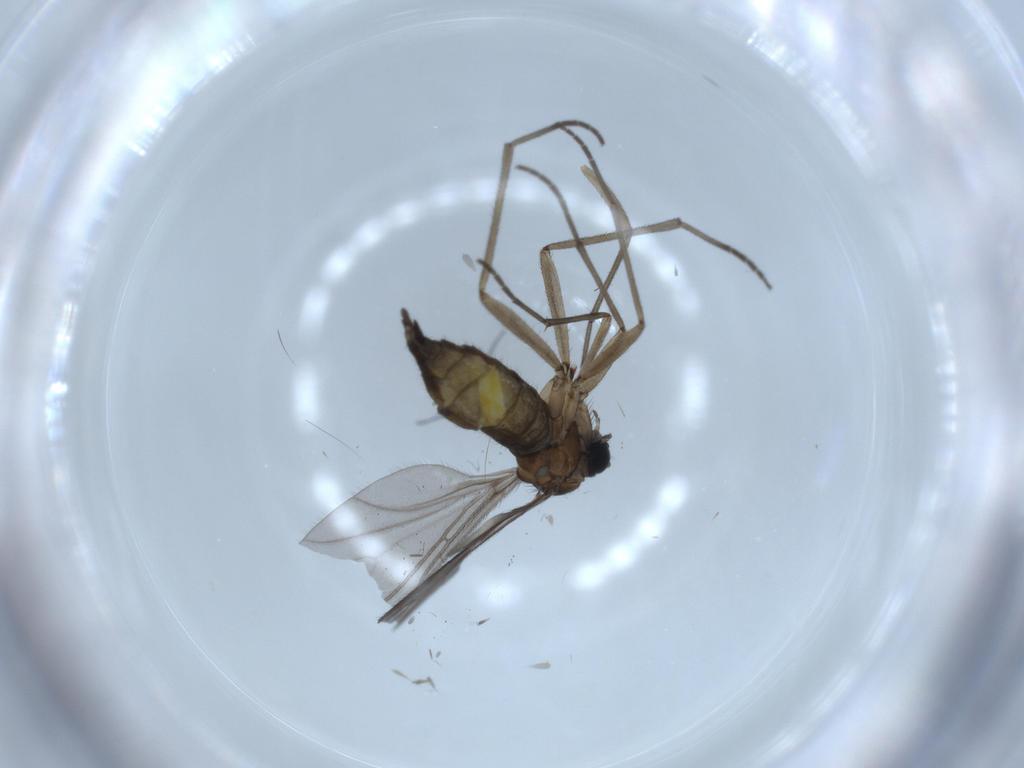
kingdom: Animalia
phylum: Arthropoda
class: Insecta
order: Diptera
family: Sciaridae
